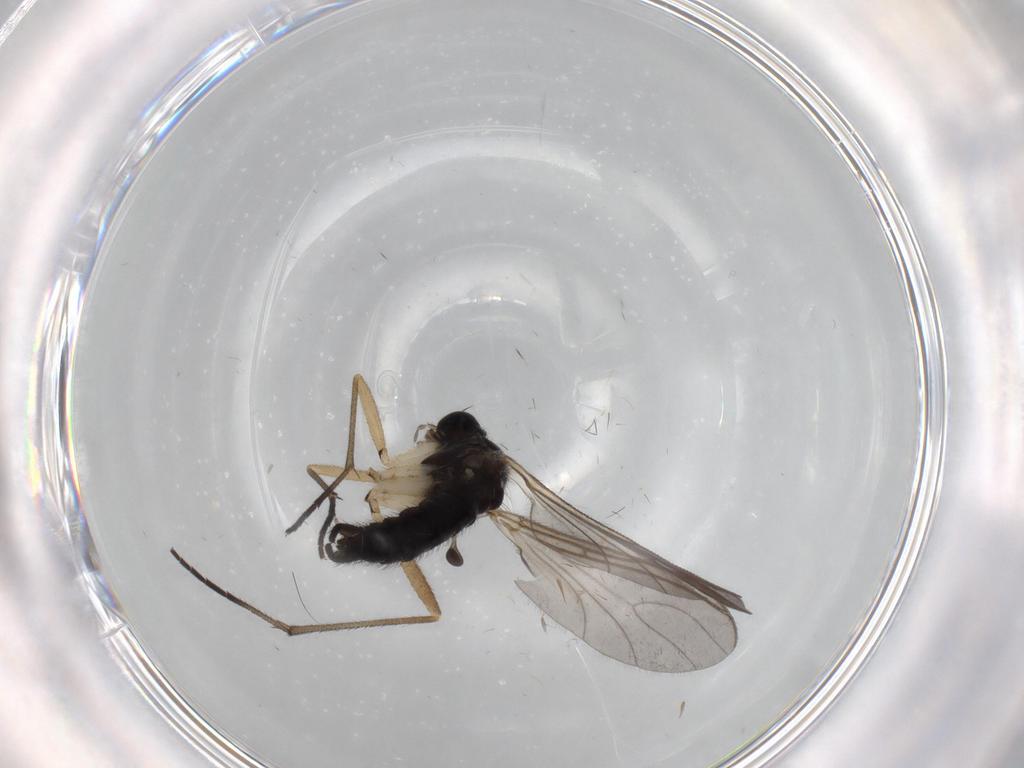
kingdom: Animalia
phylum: Arthropoda
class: Insecta
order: Diptera
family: Sciaridae
